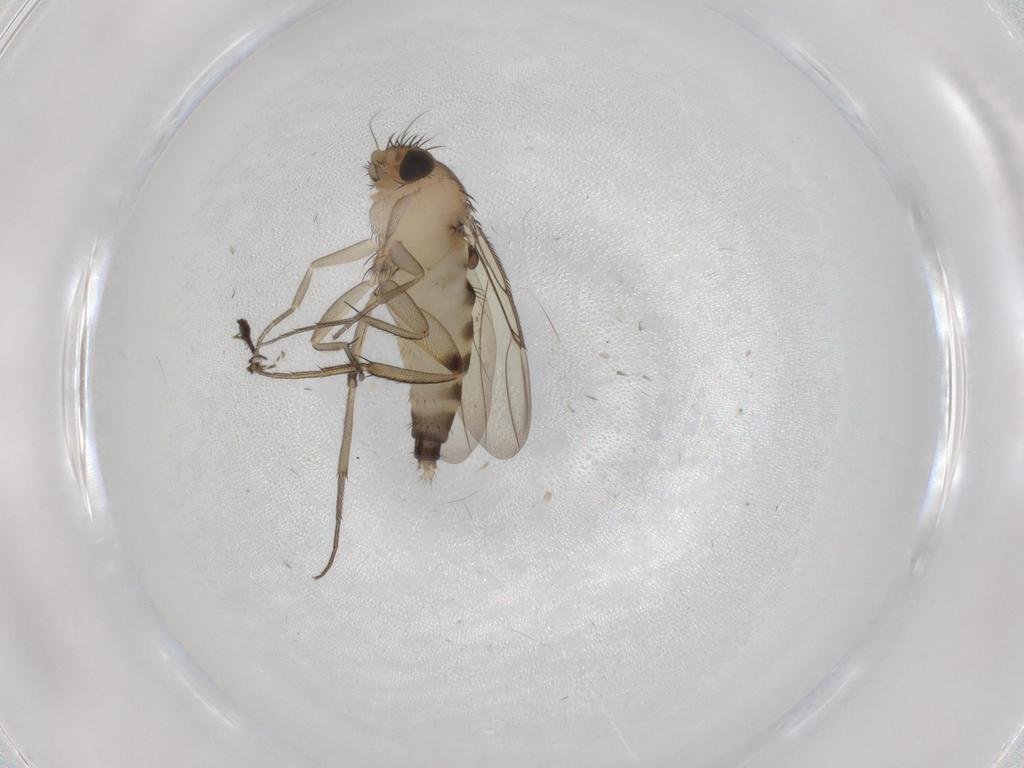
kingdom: Animalia
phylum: Arthropoda
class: Insecta
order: Diptera
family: Phoridae
